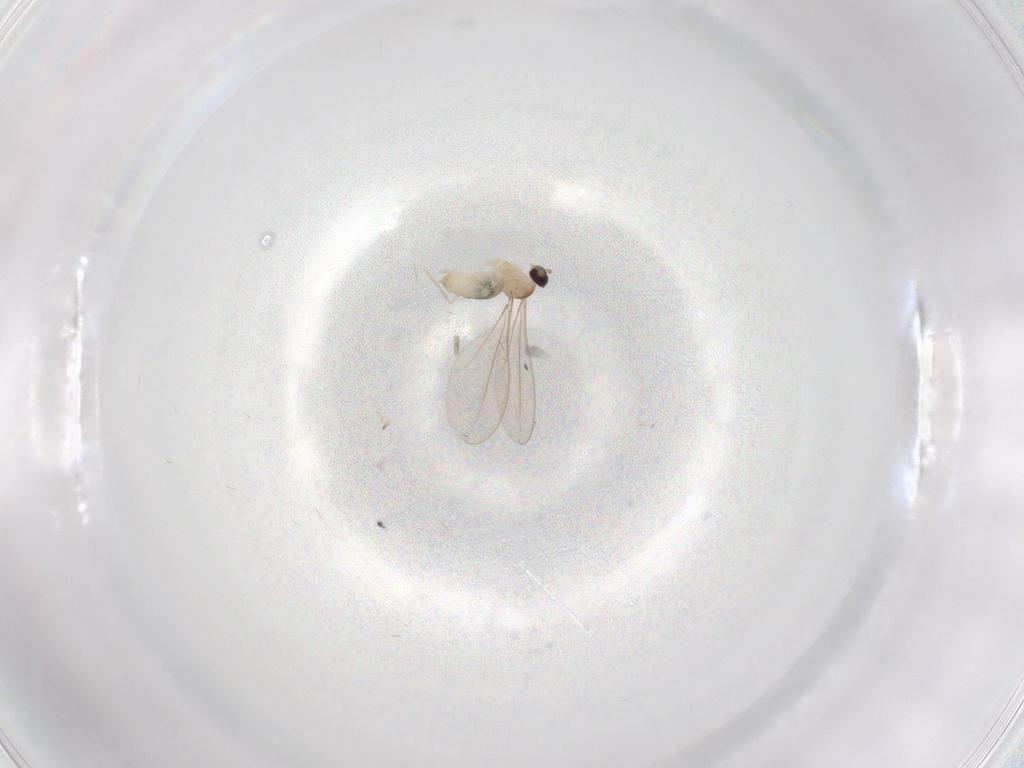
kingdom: Animalia
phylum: Arthropoda
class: Insecta
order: Diptera
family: Cecidomyiidae
